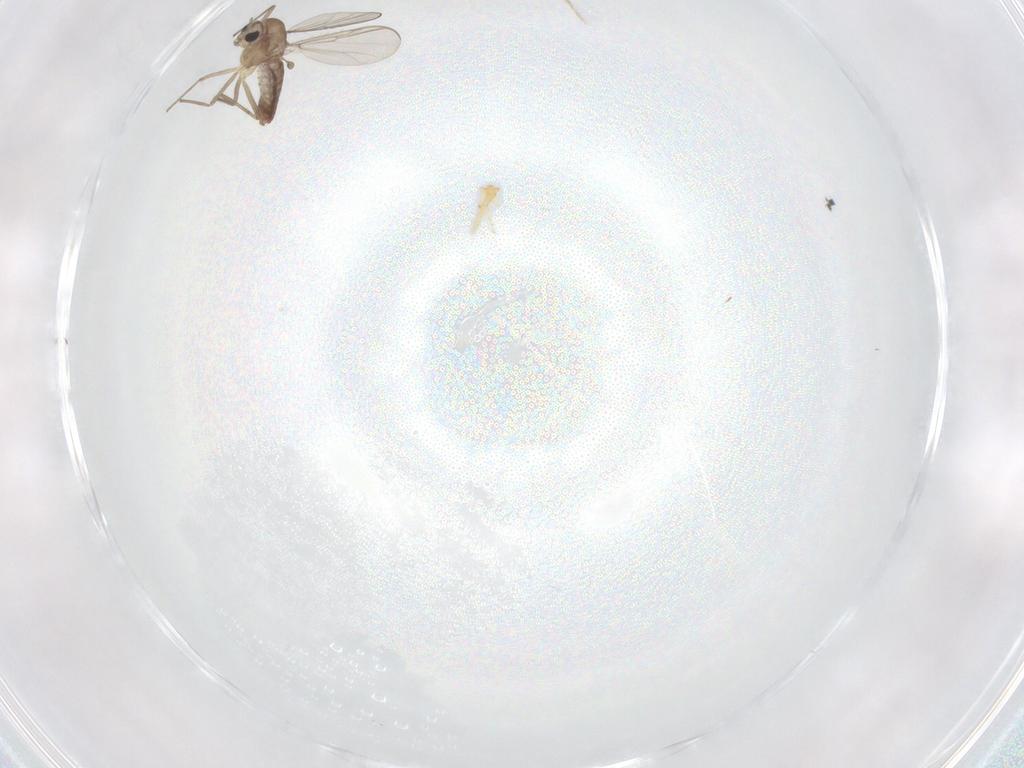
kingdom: Animalia
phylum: Arthropoda
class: Insecta
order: Diptera
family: Chironomidae
